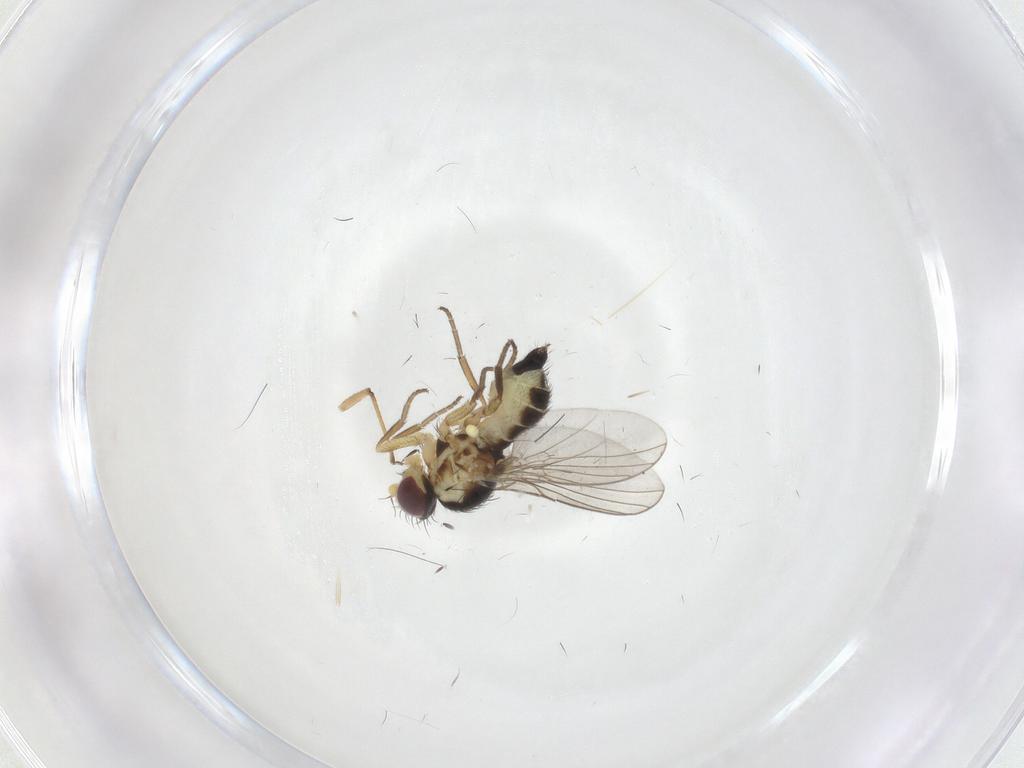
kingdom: Animalia
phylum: Arthropoda
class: Insecta
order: Diptera
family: Agromyzidae
